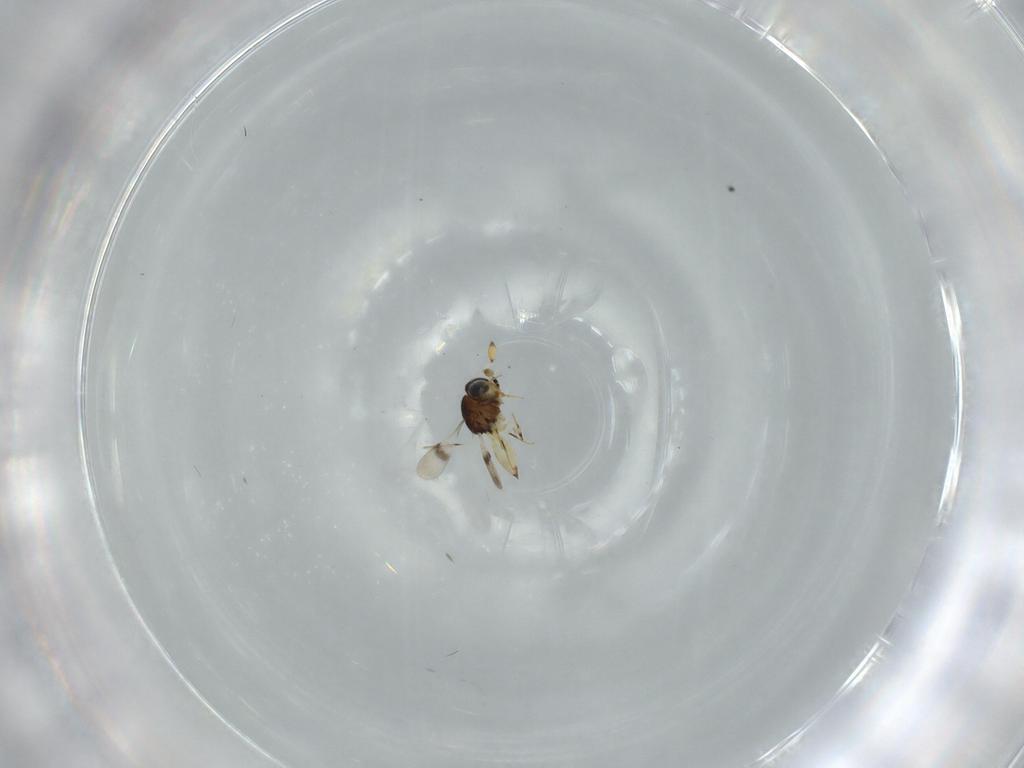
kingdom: Animalia
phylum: Arthropoda
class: Insecta
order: Hymenoptera
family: Scelionidae
